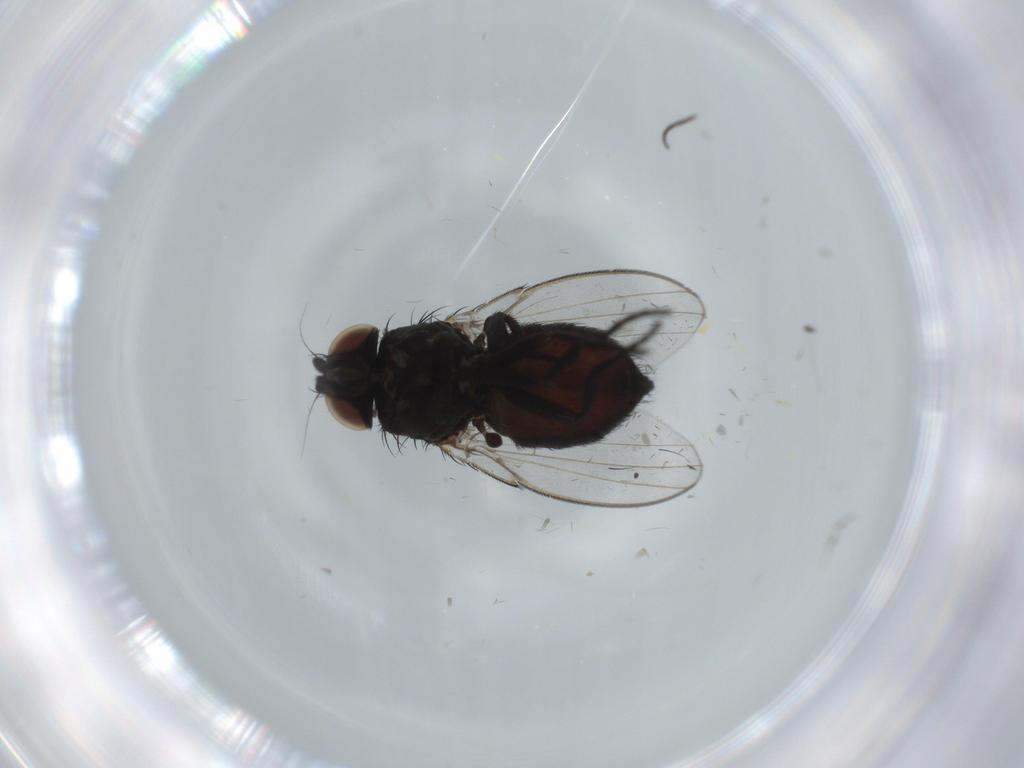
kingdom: Animalia
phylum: Arthropoda
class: Insecta
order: Diptera
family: Milichiidae
